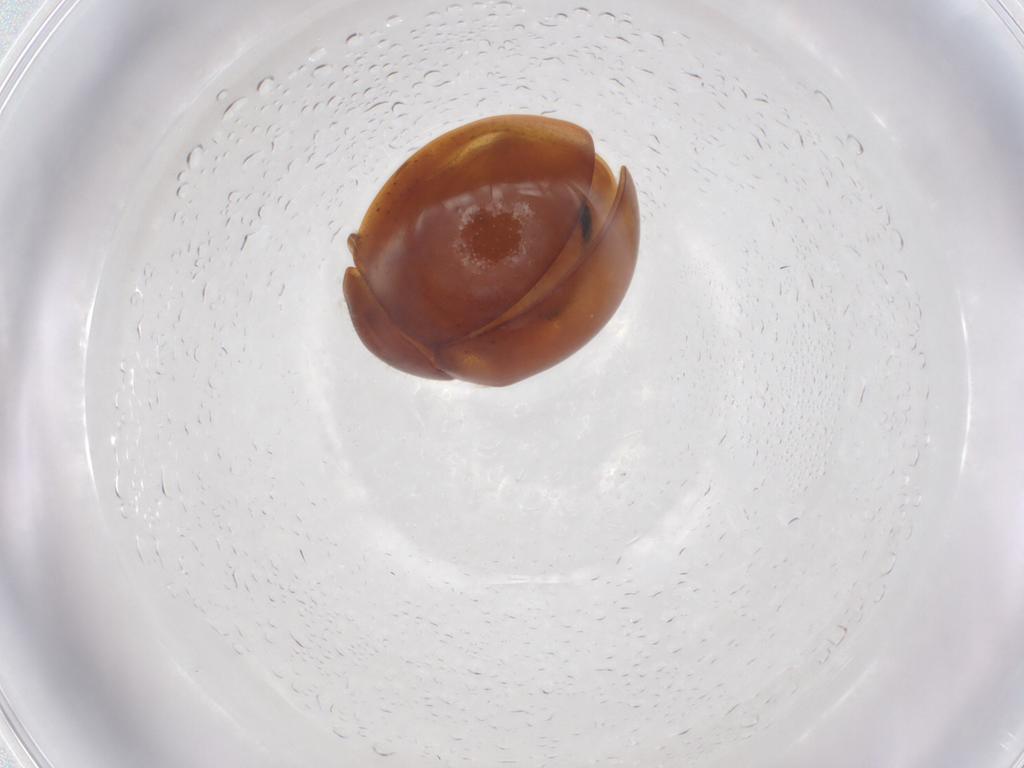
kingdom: Animalia
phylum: Arthropoda
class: Insecta
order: Coleoptera
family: Coccinellidae
